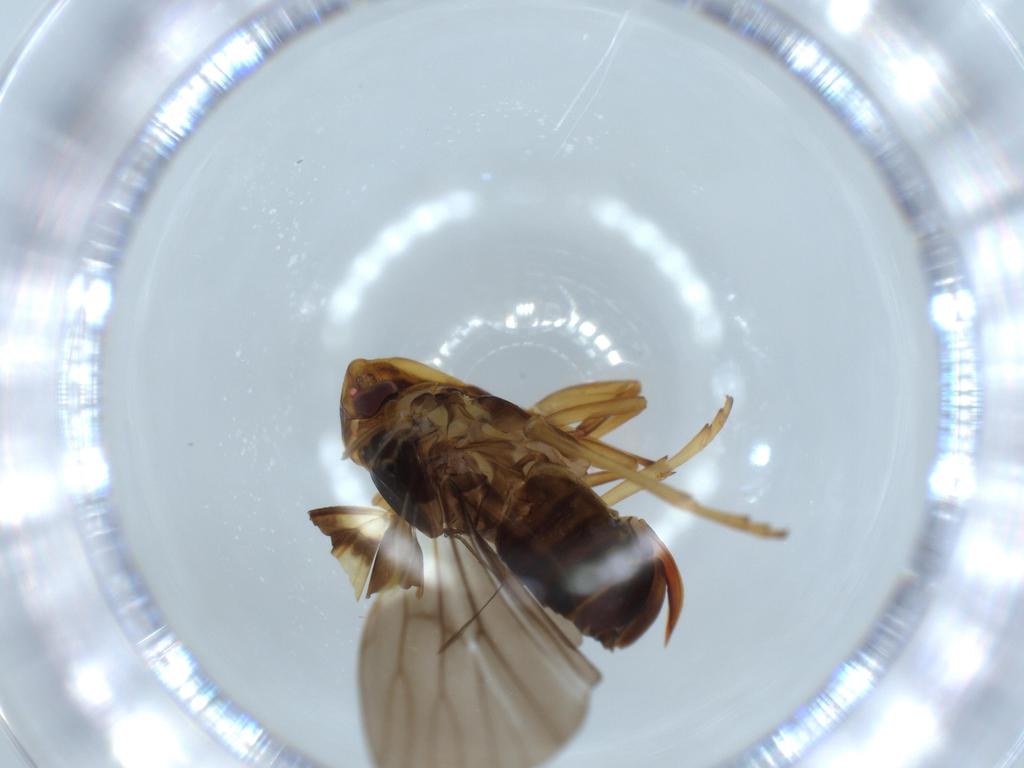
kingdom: Animalia
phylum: Arthropoda
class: Insecta
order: Hemiptera
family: Cixiidae
